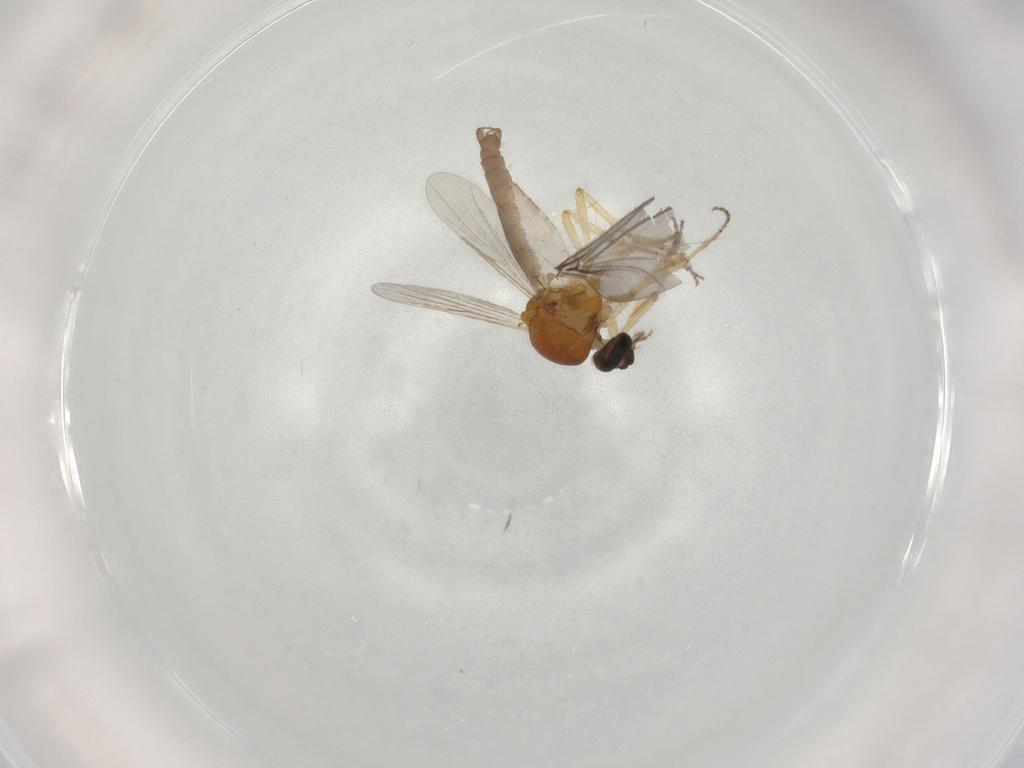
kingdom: Animalia
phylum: Arthropoda
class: Insecta
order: Diptera
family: Ceratopogonidae
